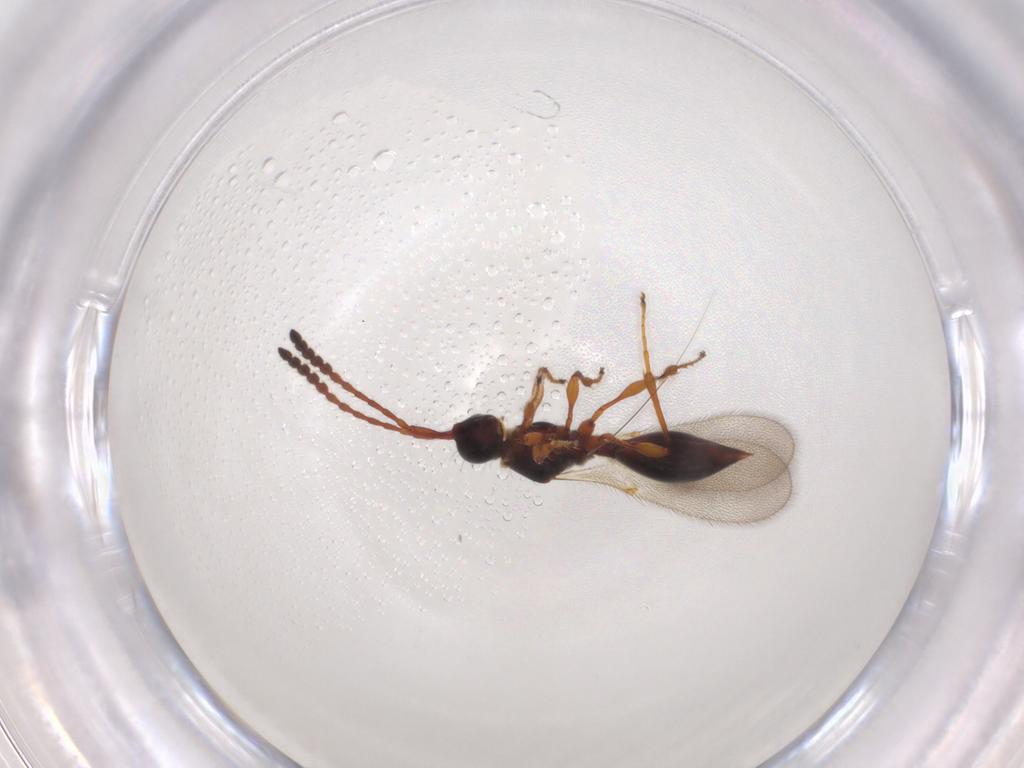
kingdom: Animalia
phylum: Arthropoda
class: Insecta
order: Hymenoptera
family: Diapriidae
